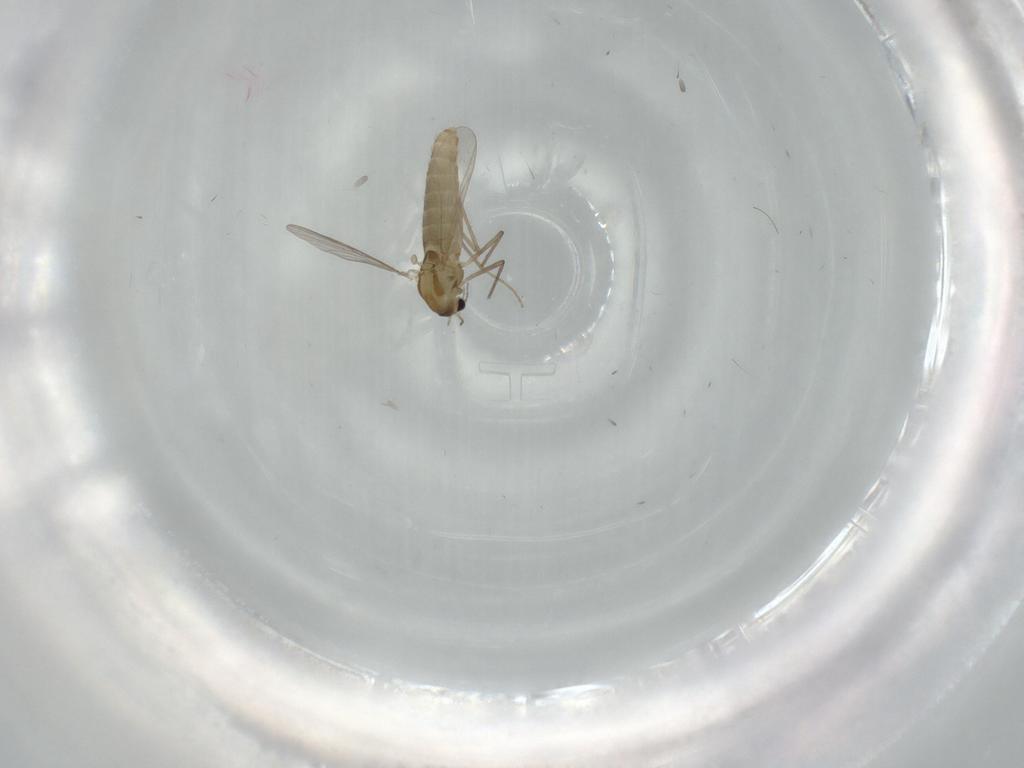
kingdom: Animalia
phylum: Arthropoda
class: Insecta
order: Diptera
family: Chironomidae
